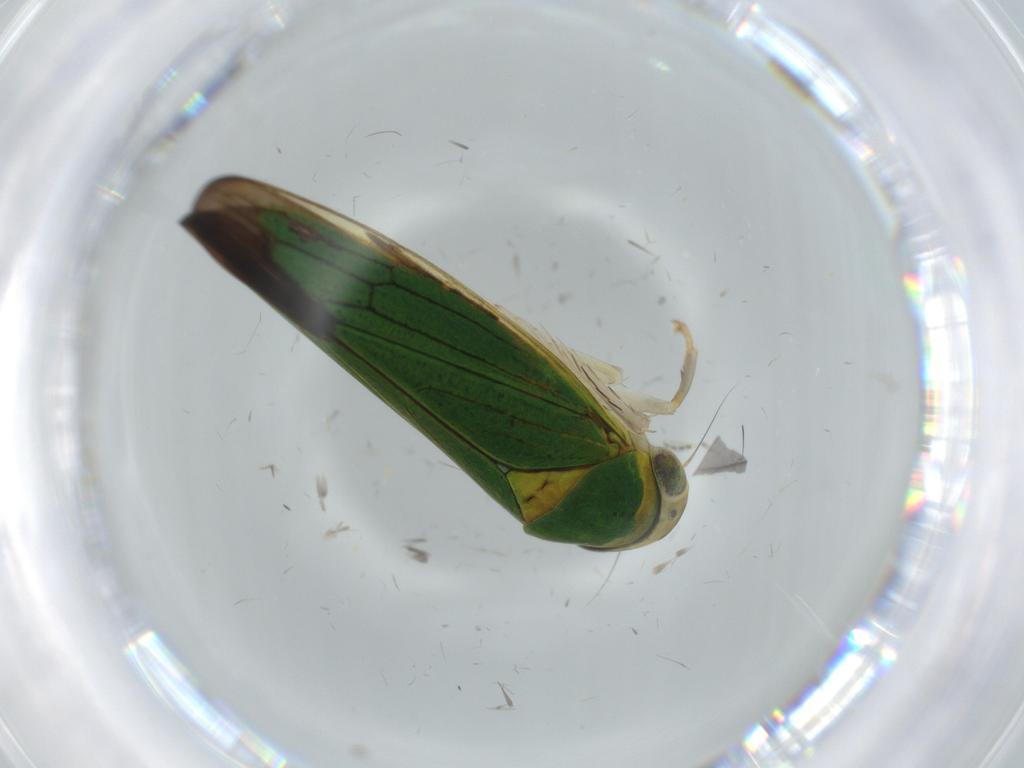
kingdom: Animalia
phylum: Arthropoda
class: Insecta
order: Hemiptera
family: Cicadellidae
